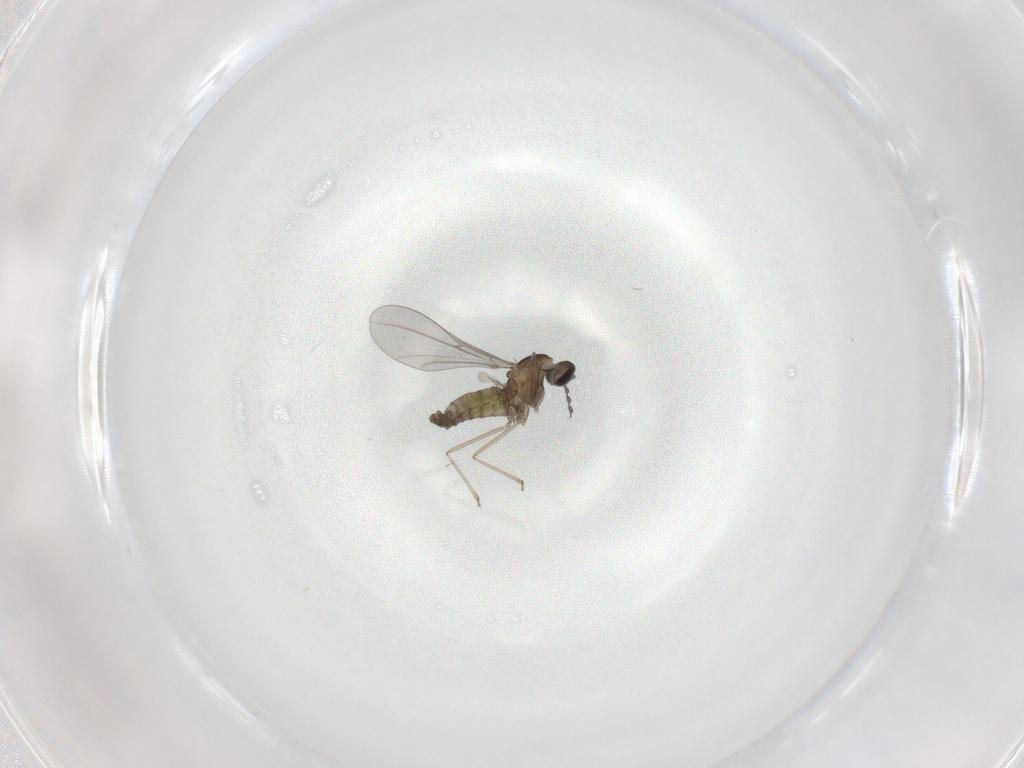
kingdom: Animalia
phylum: Arthropoda
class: Insecta
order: Diptera
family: Cecidomyiidae
